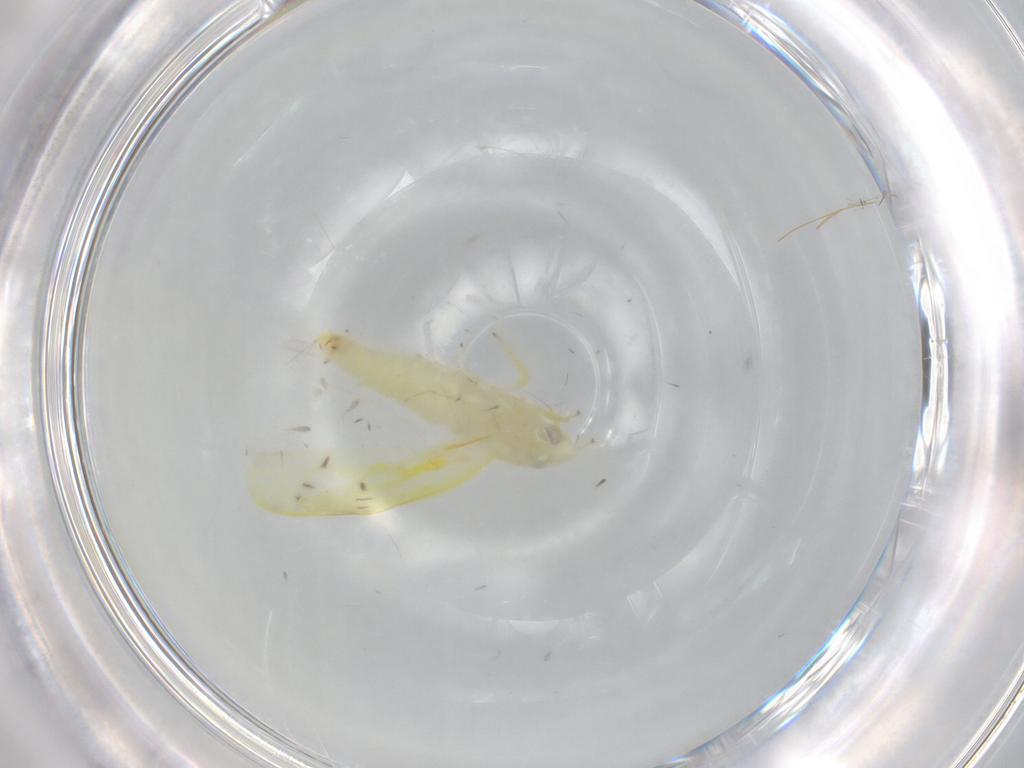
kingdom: Animalia
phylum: Arthropoda
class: Insecta
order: Hemiptera
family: Cicadellidae
